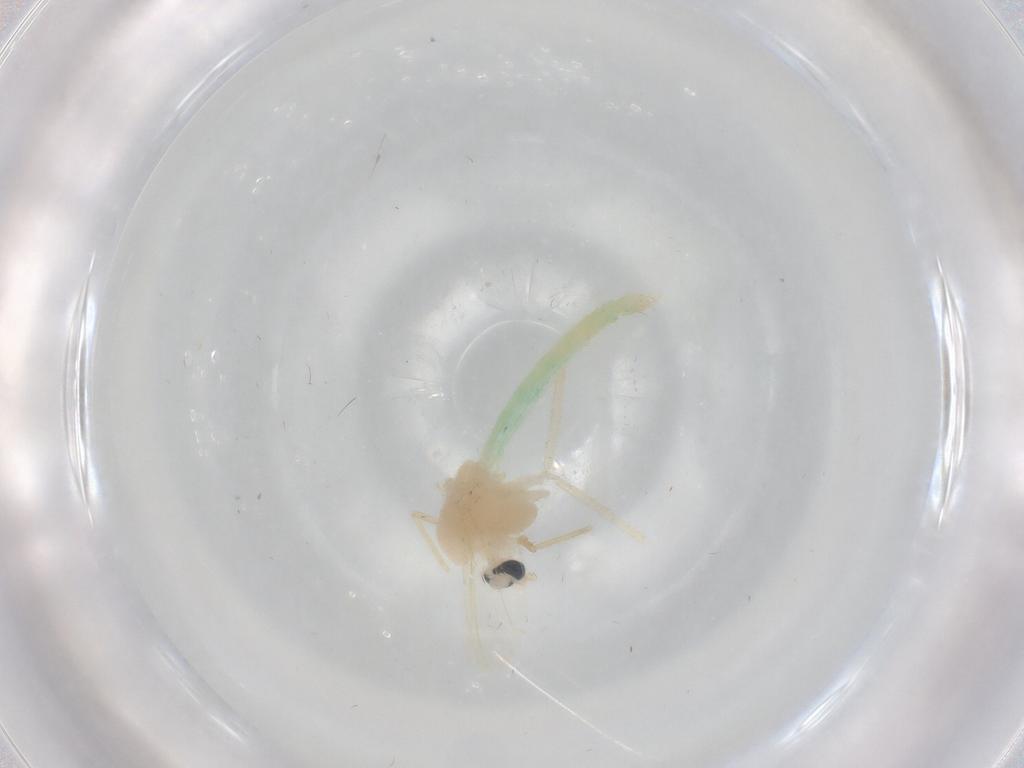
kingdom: Animalia
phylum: Arthropoda
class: Insecta
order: Diptera
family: Chironomidae
